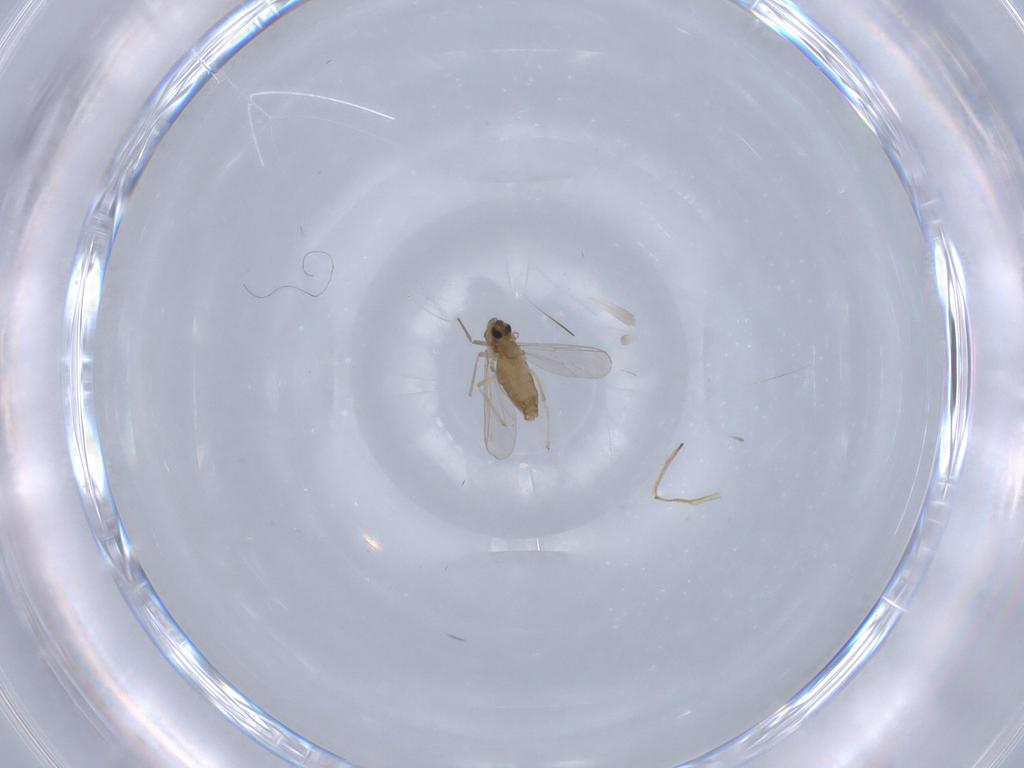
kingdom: Animalia
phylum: Arthropoda
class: Insecta
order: Diptera
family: Chironomidae
